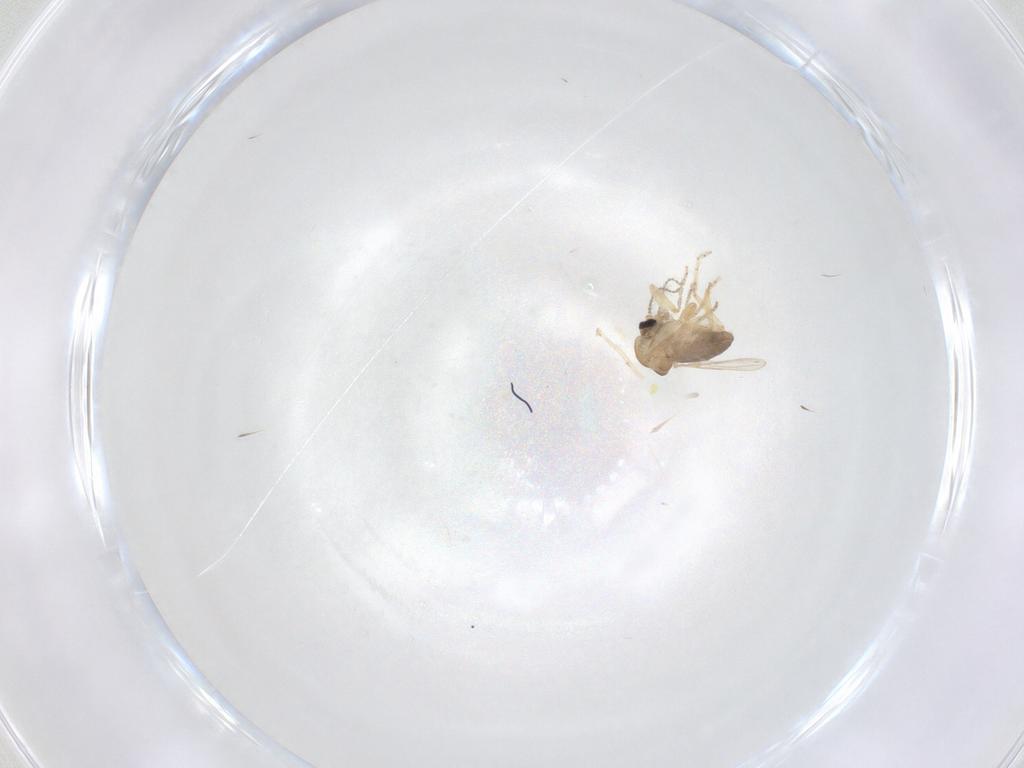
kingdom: Animalia
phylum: Arthropoda
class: Insecta
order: Diptera
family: Ceratopogonidae
